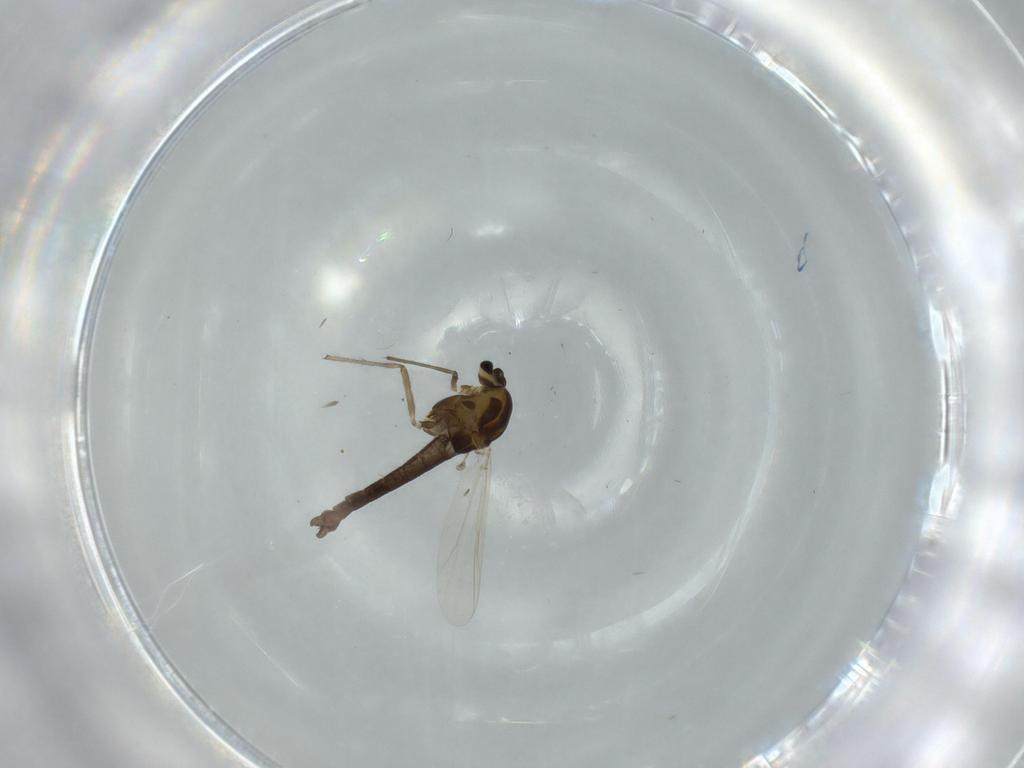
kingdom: Animalia
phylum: Arthropoda
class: Insecta
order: Diptera
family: Chironomidae
